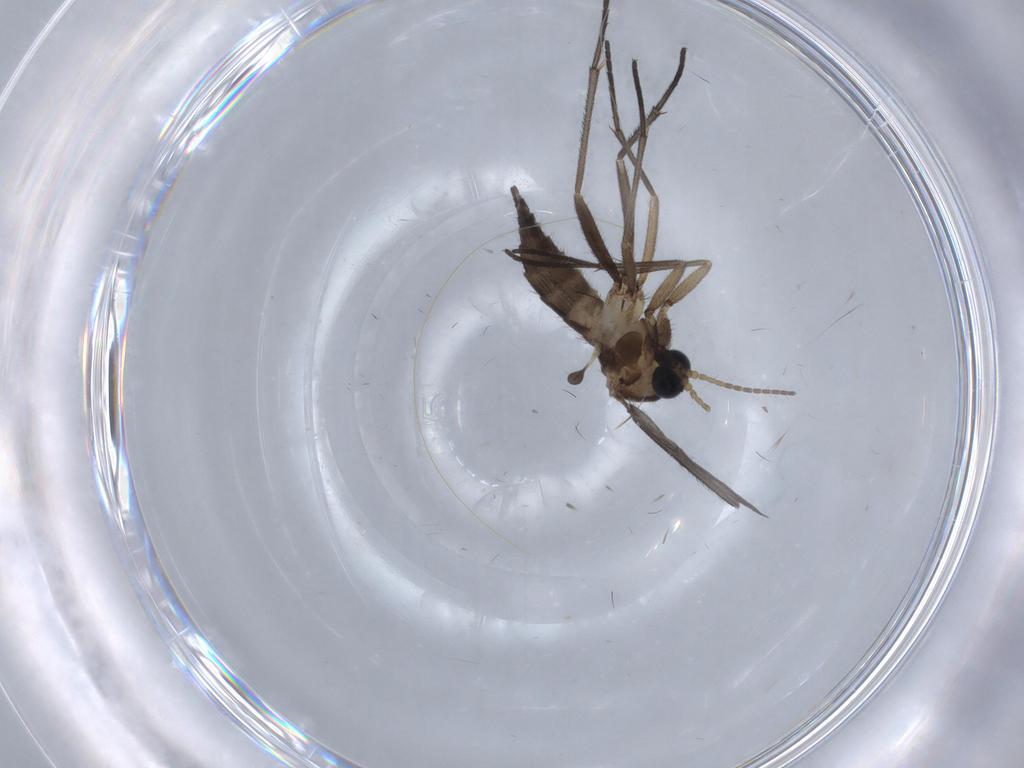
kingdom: Animalia
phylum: Arthropoda
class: Insecta
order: Diptera
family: Sciaridae
